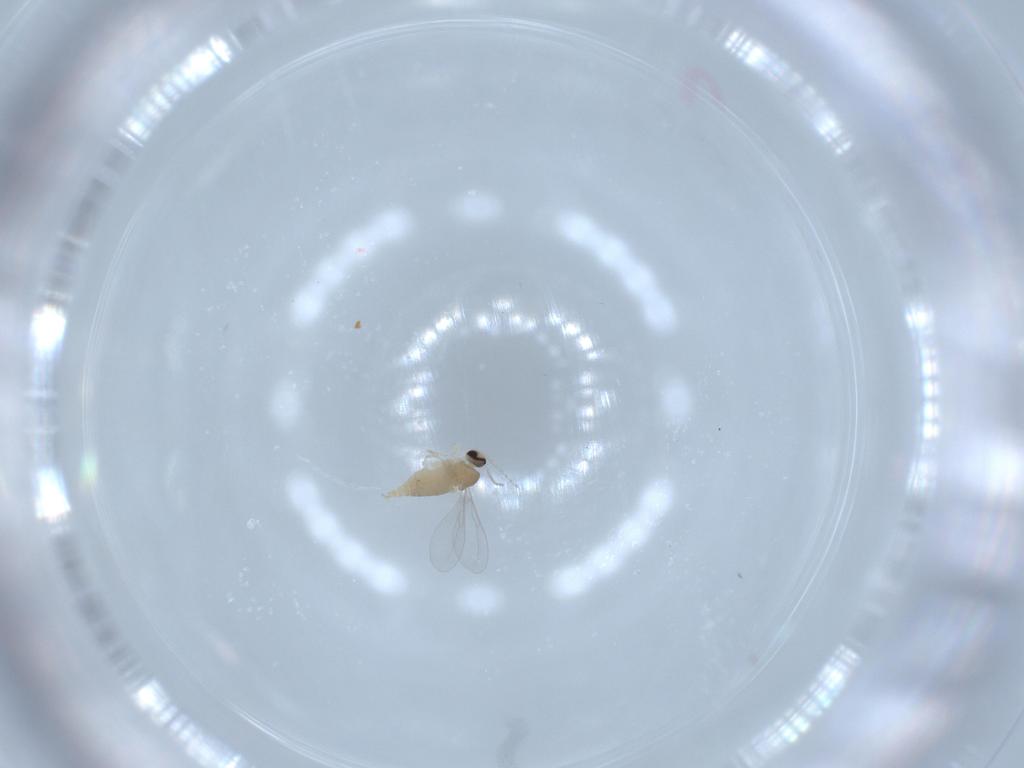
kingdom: Animalia
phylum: Arthropoda
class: Insecta
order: Diptera
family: Cecidomyiidae
